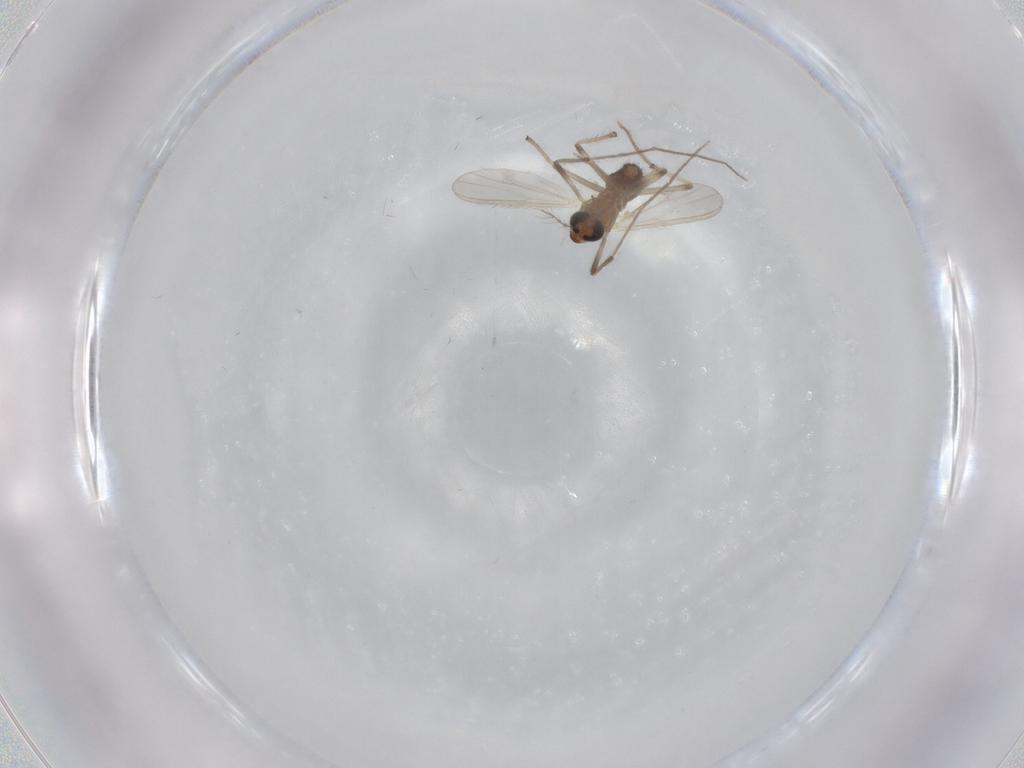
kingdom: Animalia
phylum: Arthropoda
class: Insecta
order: Diptera
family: Chironomidae
